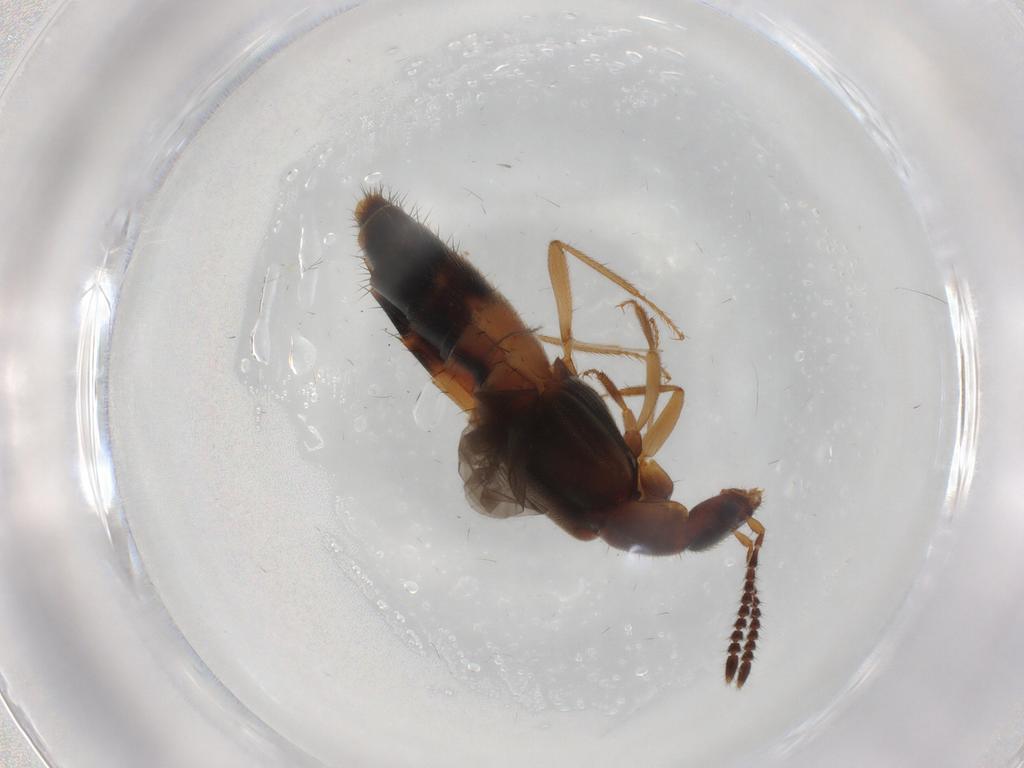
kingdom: Animalia
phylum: Arthropoda
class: Insecta
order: Coleoptera
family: Staphylinidae
